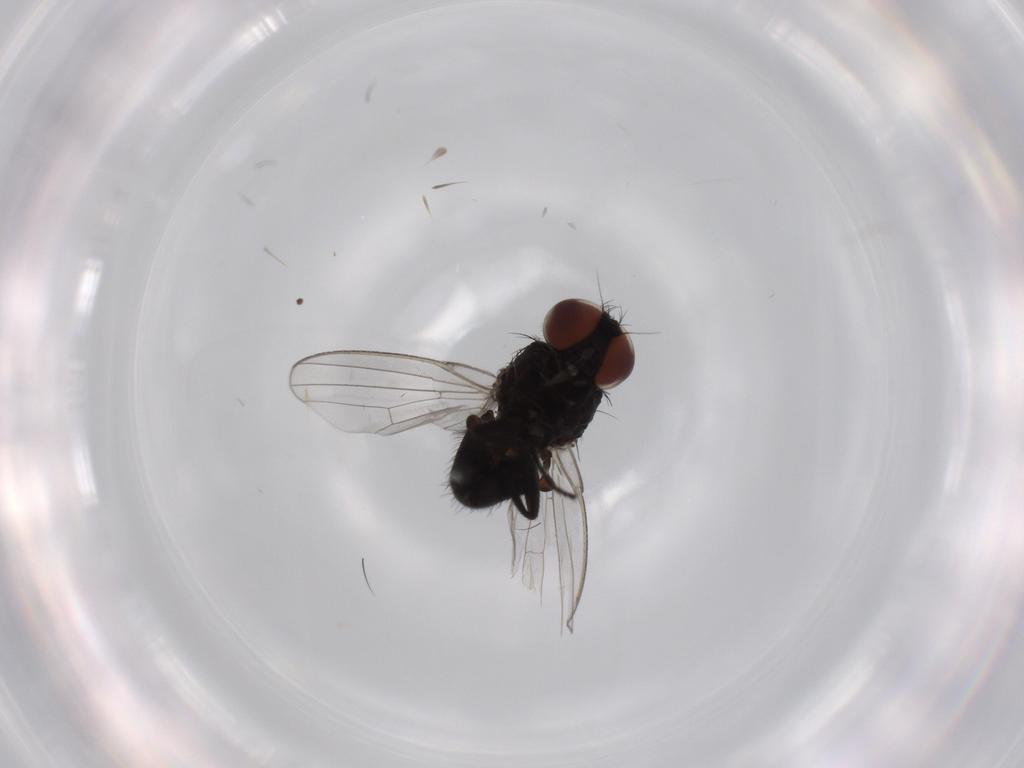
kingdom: Animalia
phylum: Arthropoda
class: Insecta
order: Diptera
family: Milichiidae
